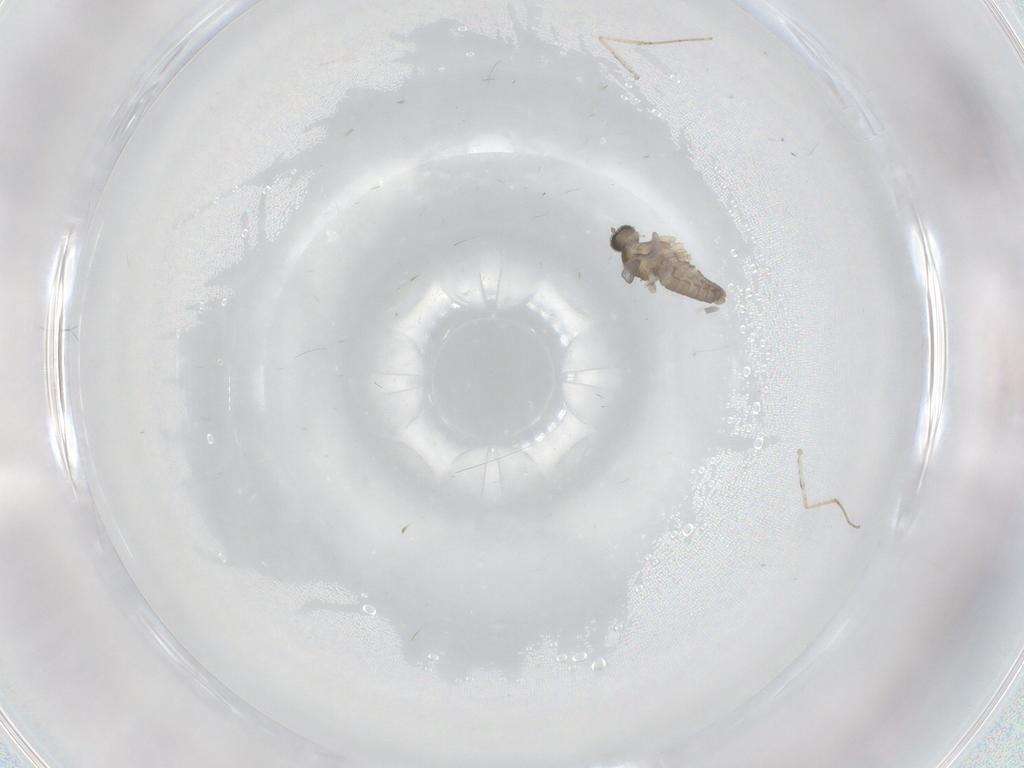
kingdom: Animalia
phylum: Arthropoda
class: Insecta
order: Diptera
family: Cecidomyiidae
